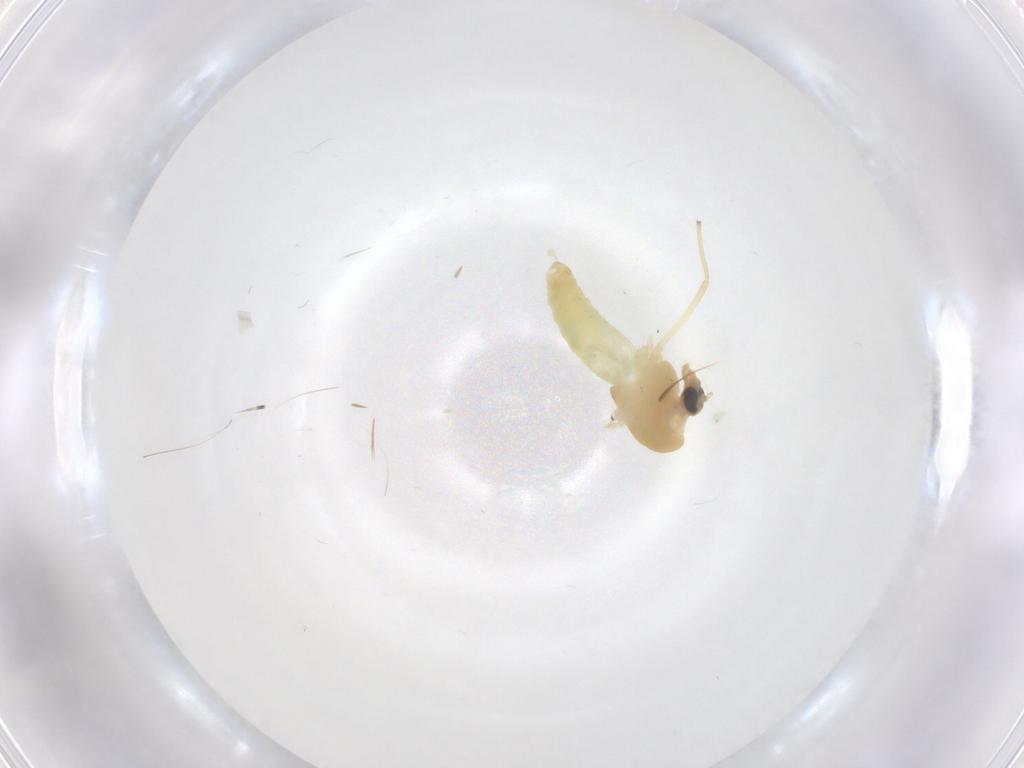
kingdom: Animalia
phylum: Arthropoda
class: Insecta
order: Diptera
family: Chironomidae
